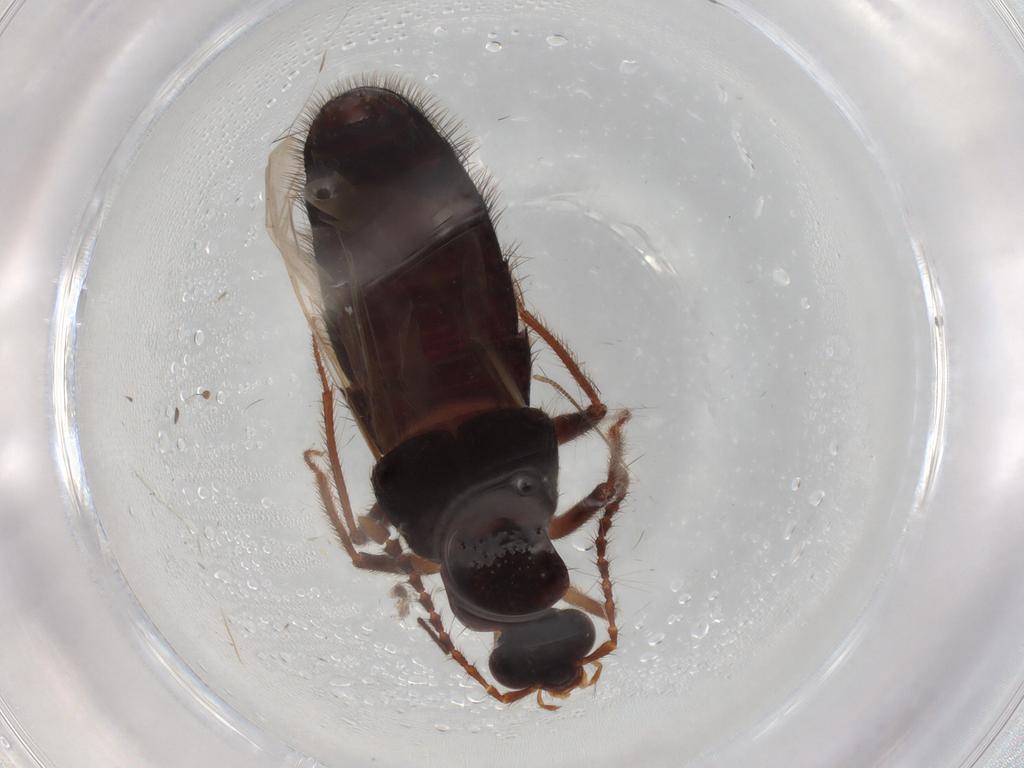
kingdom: Animalia
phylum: Arthropoda
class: Insecta
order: Coleoptera
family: Staphylinidae
